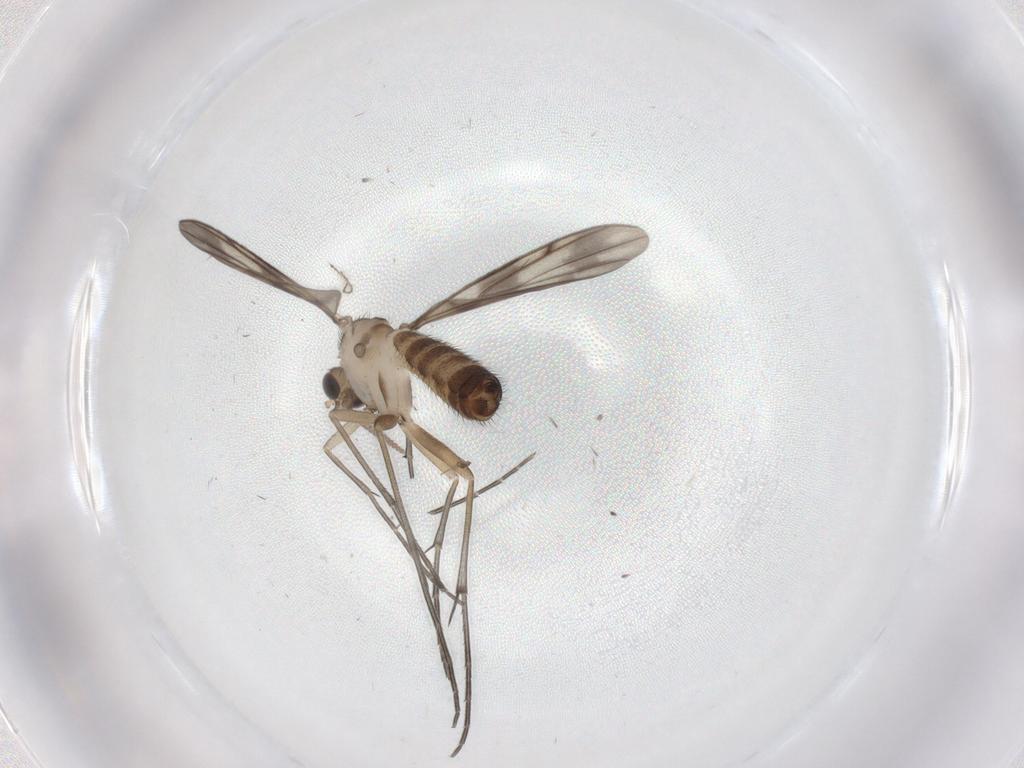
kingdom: Animalia
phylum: Arthropoda
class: Insecta
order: Diptera
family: Keroplatidae
